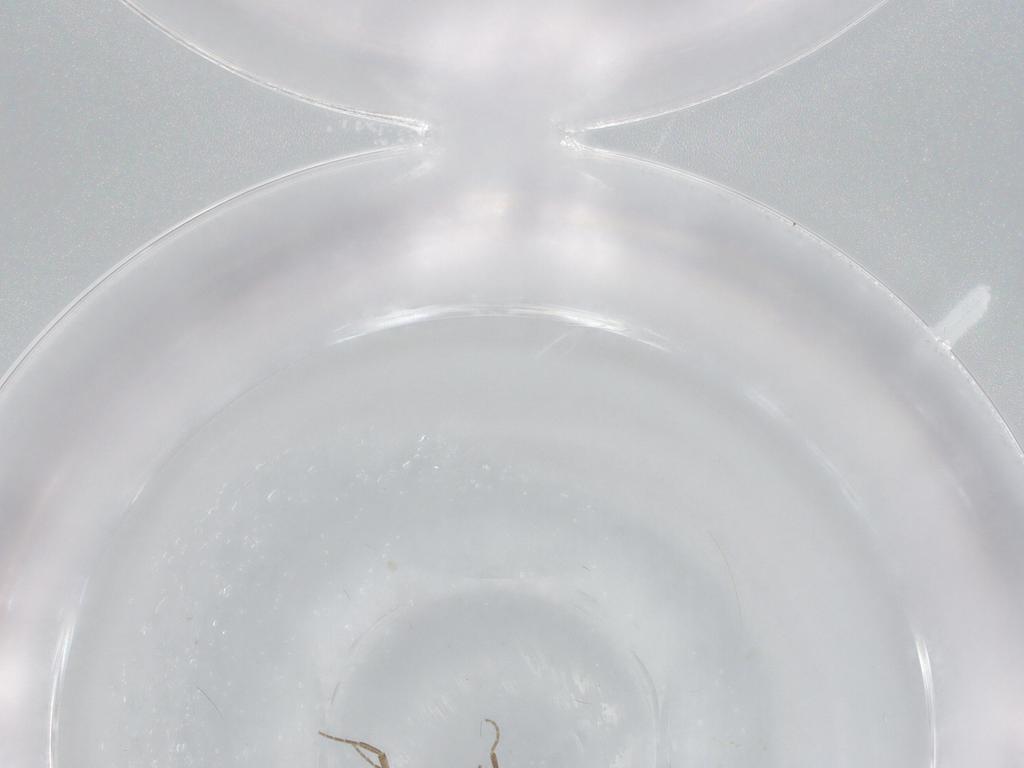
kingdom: Animalia
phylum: Arthropoda
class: Insecta
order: Diptera
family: Phoridae
